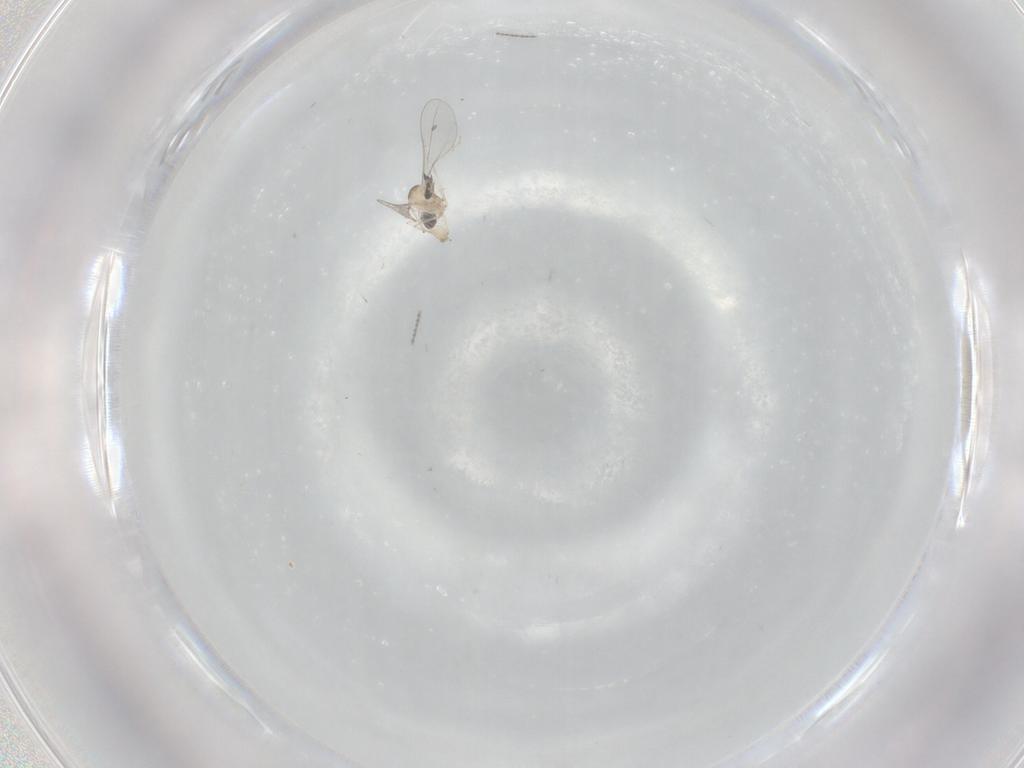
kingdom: Animalia
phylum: Arthropoda
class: Insecta
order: Diptera
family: Cecidomyiidae
